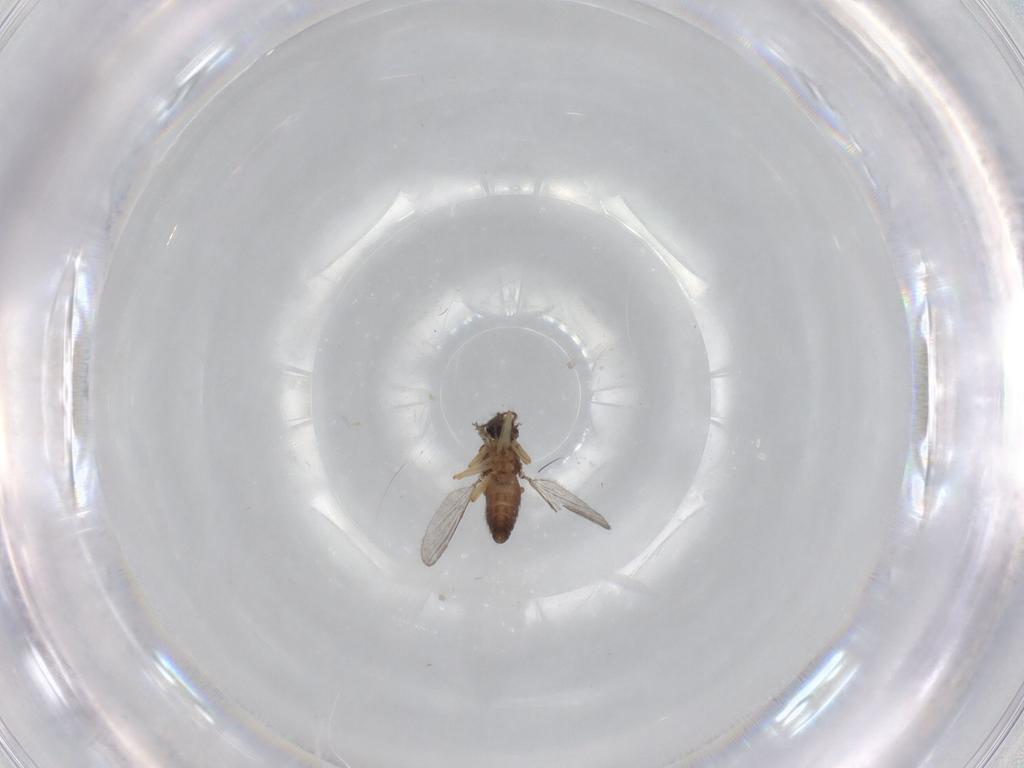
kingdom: Animalia
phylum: Arthropoda
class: Insecta
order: Diptera
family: Ceratopogonidae
